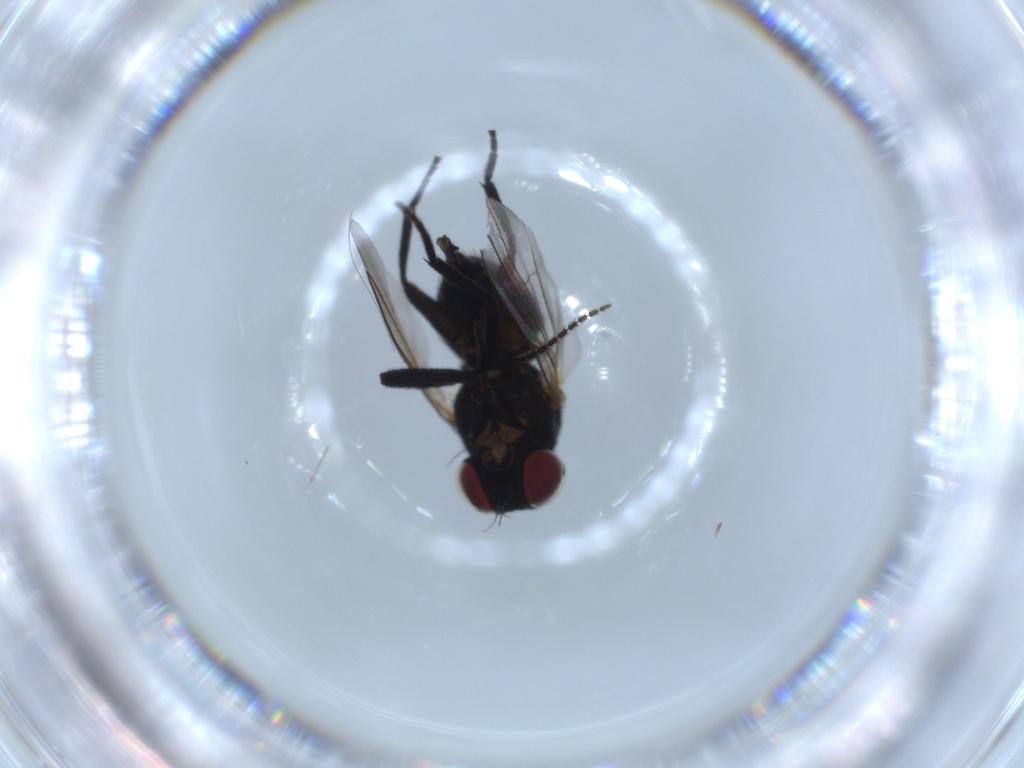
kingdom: Animalia
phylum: Arthropoda
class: Insecta
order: Diptera
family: Agromyzidae
